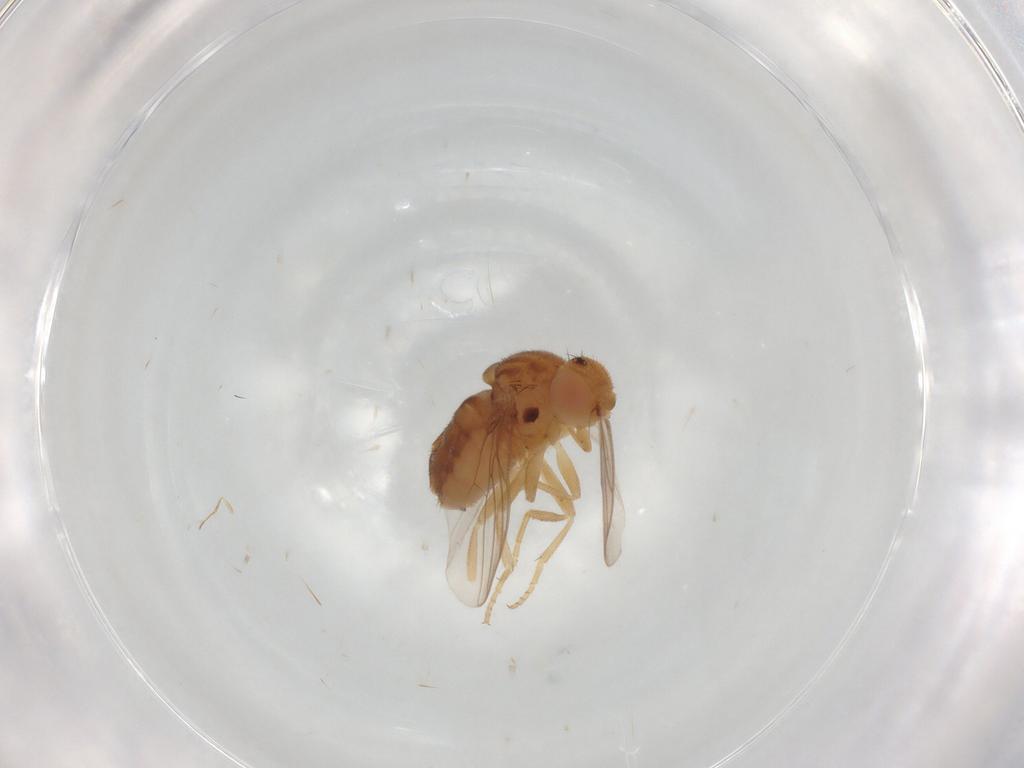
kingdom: Animalia
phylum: Arthropoda
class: Insecta
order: Diptera
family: Chloropidae
